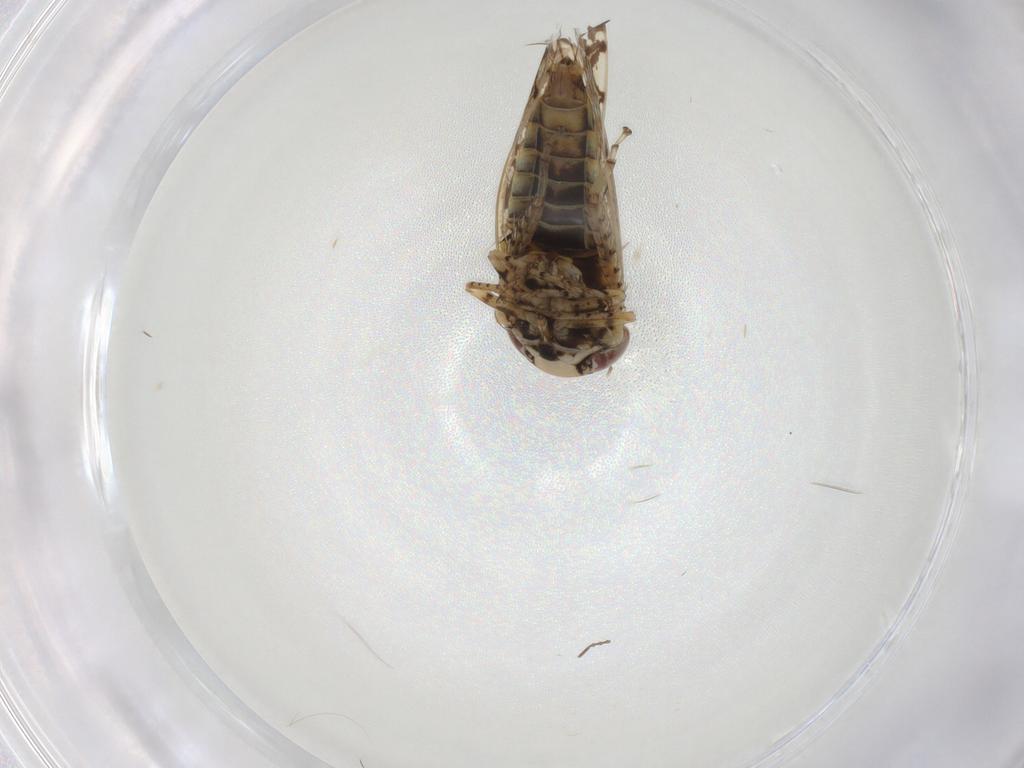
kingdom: Animalia
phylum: Arthropoda
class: Insecta
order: Hemiptera
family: Cicadellidae
